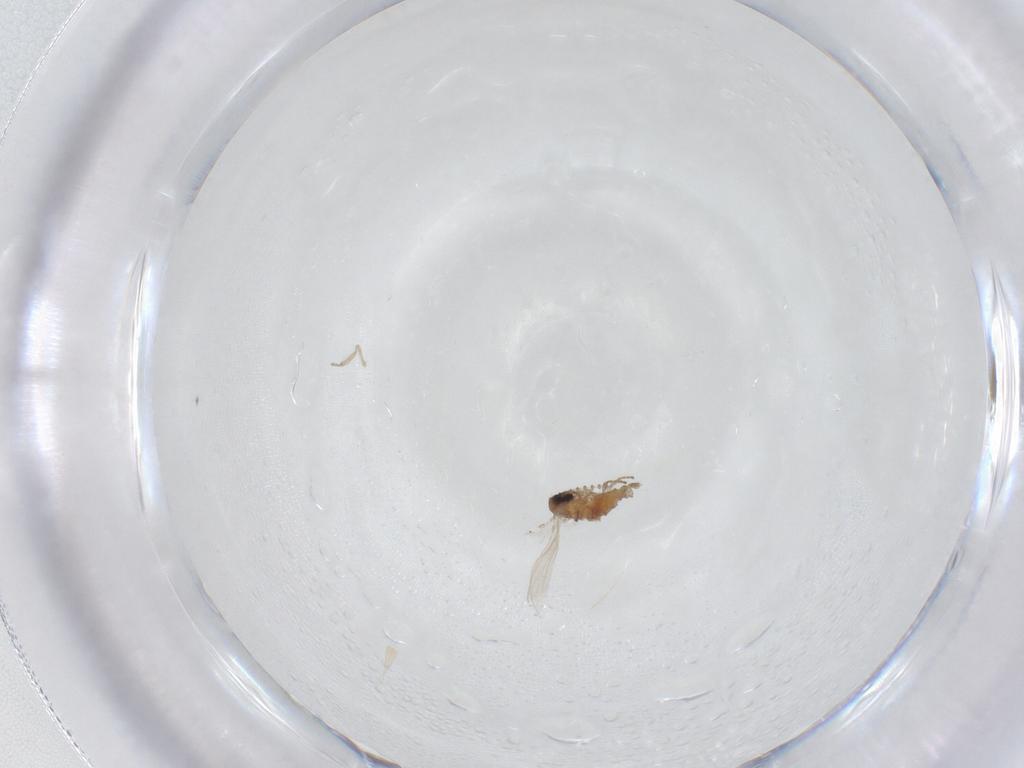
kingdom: Animalia
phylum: Arthropoda
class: Insecta
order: Diptera
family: Psychodidae
